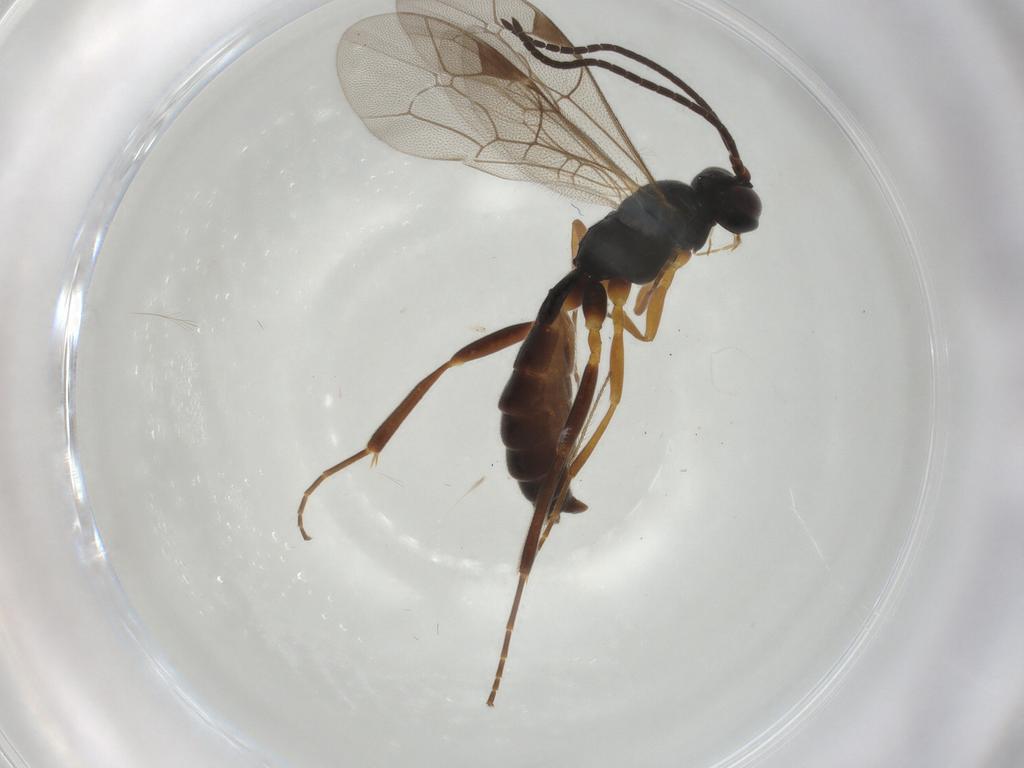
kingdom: Animalia
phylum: Arthropoda
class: Insecta
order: Hymenoptera
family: Ichneumonidae
